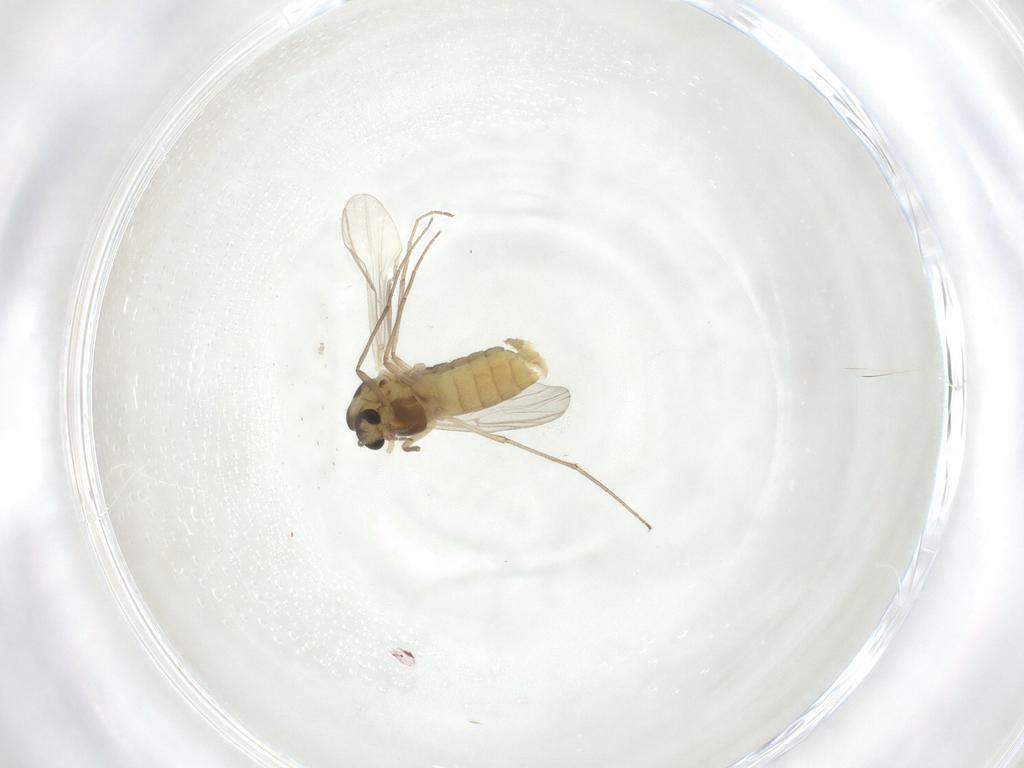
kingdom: Animalia
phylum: Arthropoda
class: Insecta
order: Diptera
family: Chironomidae
